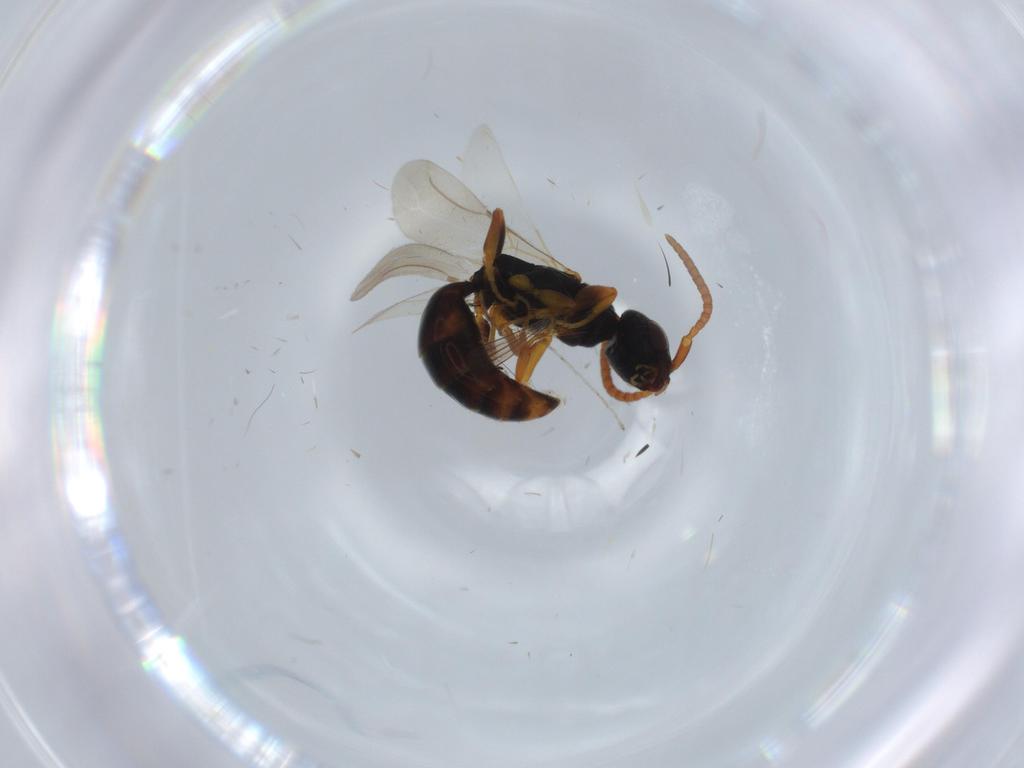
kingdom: Animalia
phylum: Arthropoda
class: Insecta
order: Hymenoptera
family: Bethylidae
